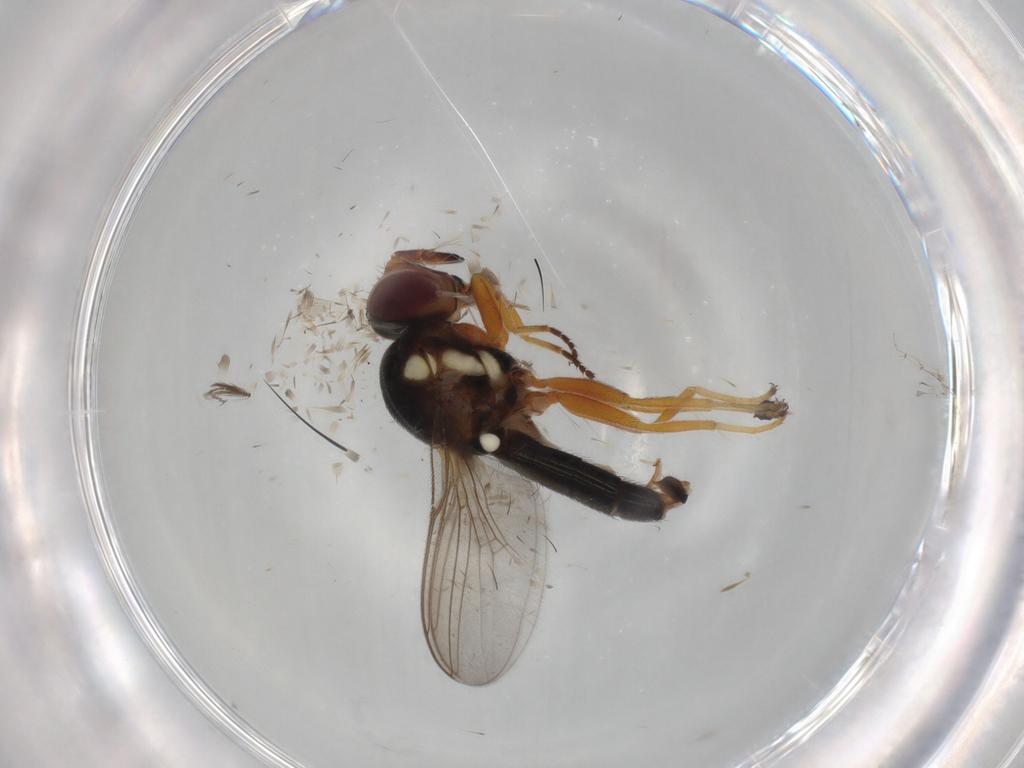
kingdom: Animalia
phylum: Arthropoda
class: Insecta
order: Diptera
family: Chloropidae
